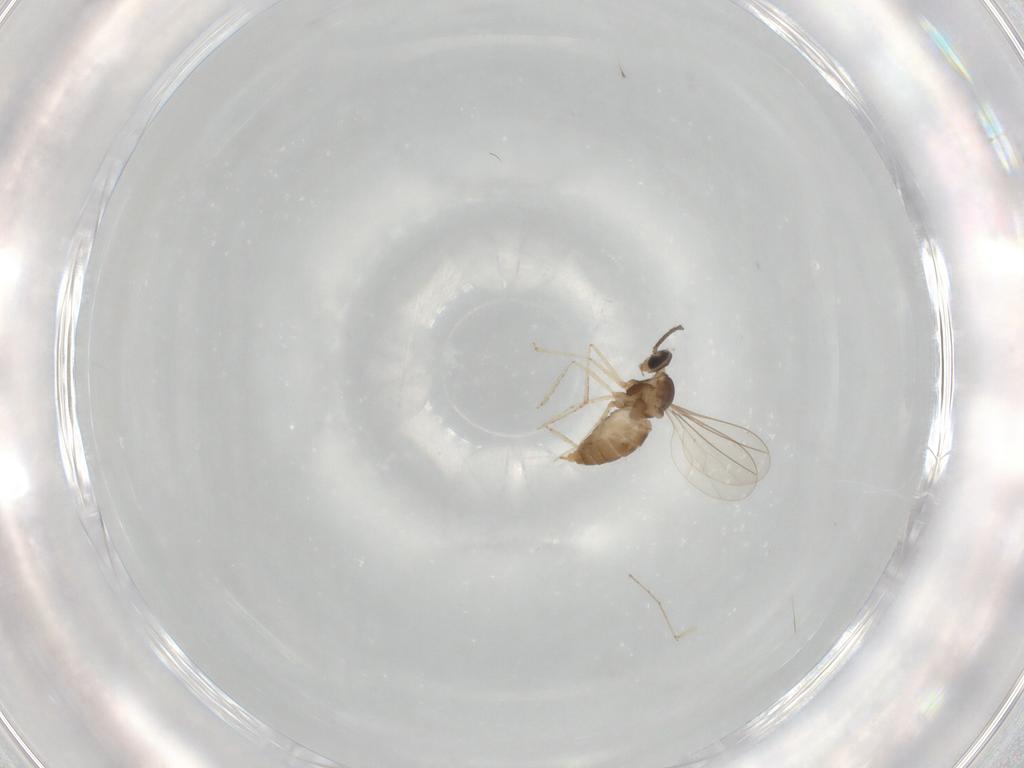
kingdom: Animalia
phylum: Arthropoda
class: Insecta
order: Diptera
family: Cecidomyiidae
